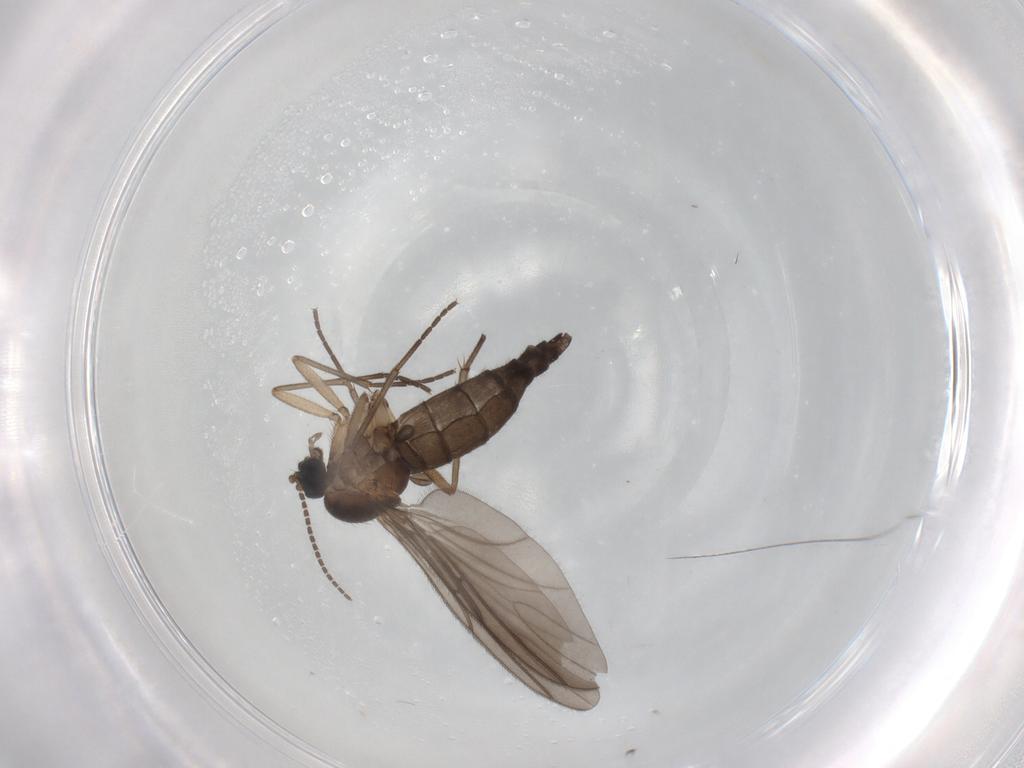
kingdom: Animalia
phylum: Arthropoda
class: Insecta
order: Diptera
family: Sciaridae
